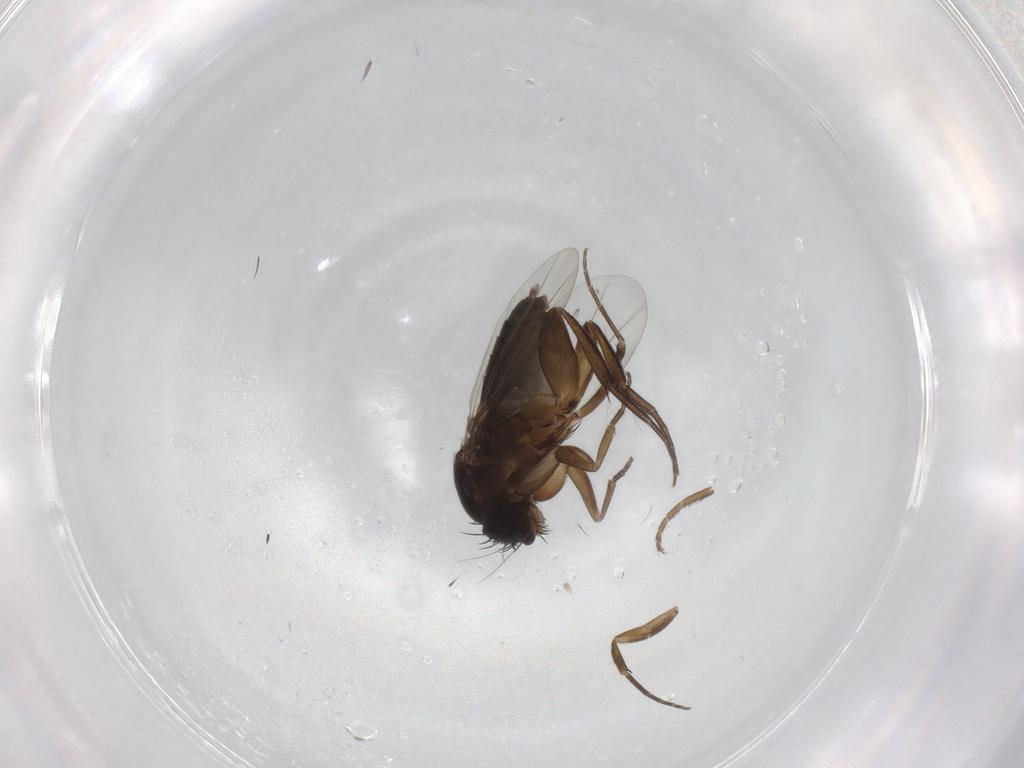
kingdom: Animalia
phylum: Arthropoda
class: Insecta
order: Diptera
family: Phoridae
